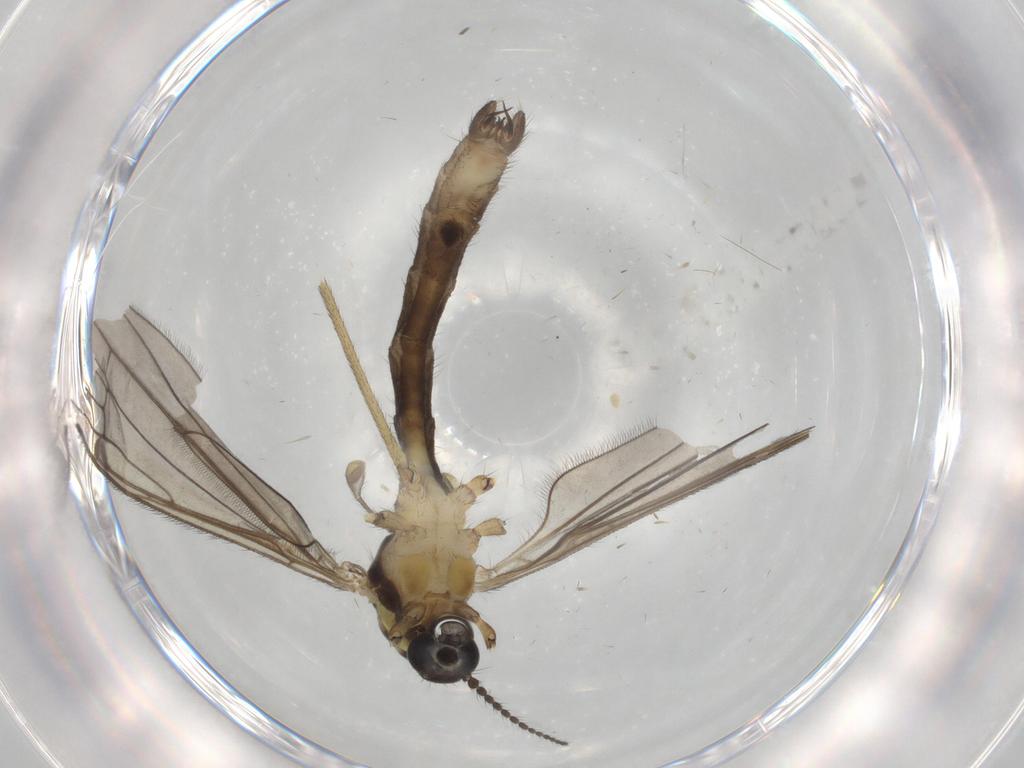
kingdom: Animalia
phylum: Arthropoda
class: Insecta
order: Diptera
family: Limoniidae
